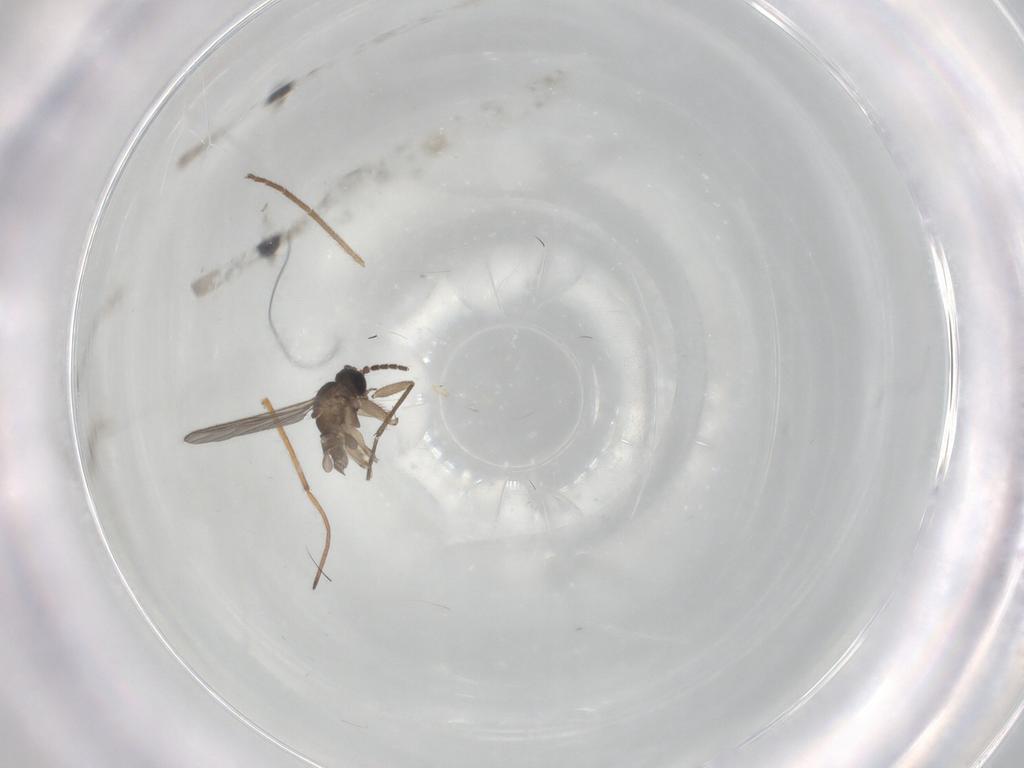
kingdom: Animalia
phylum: Arthropoda
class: Insecta
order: Diptera
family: Sciaridae
